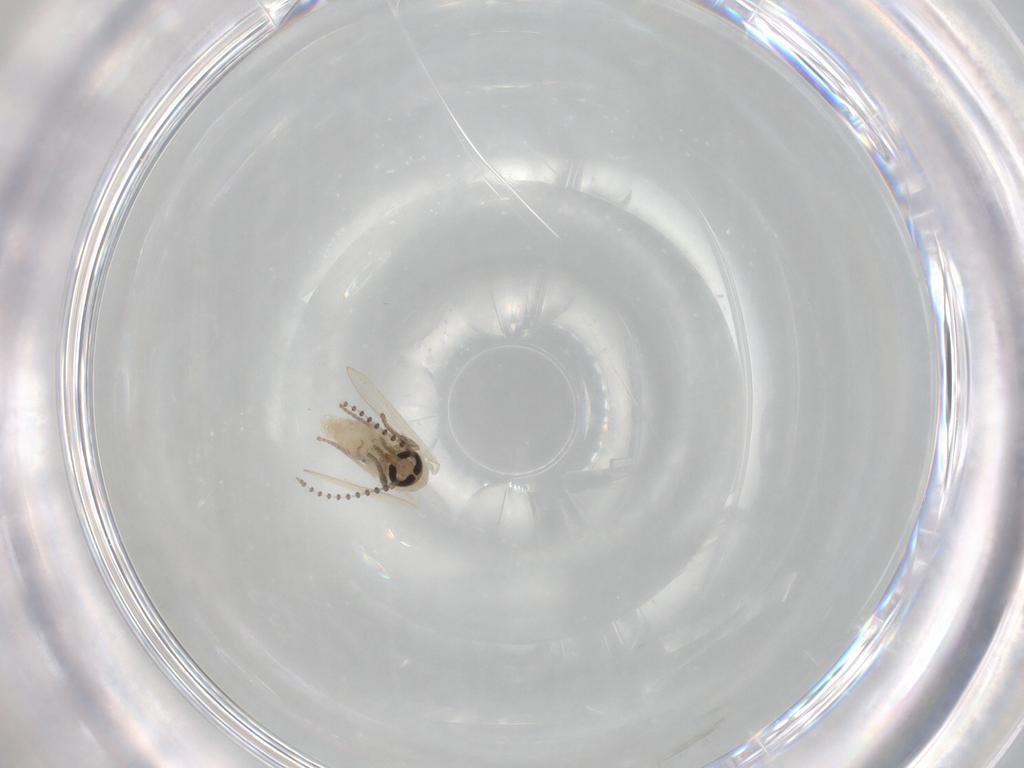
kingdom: Animalia
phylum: Arthropoda
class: Insecta
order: Diptera
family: Psychodidae
